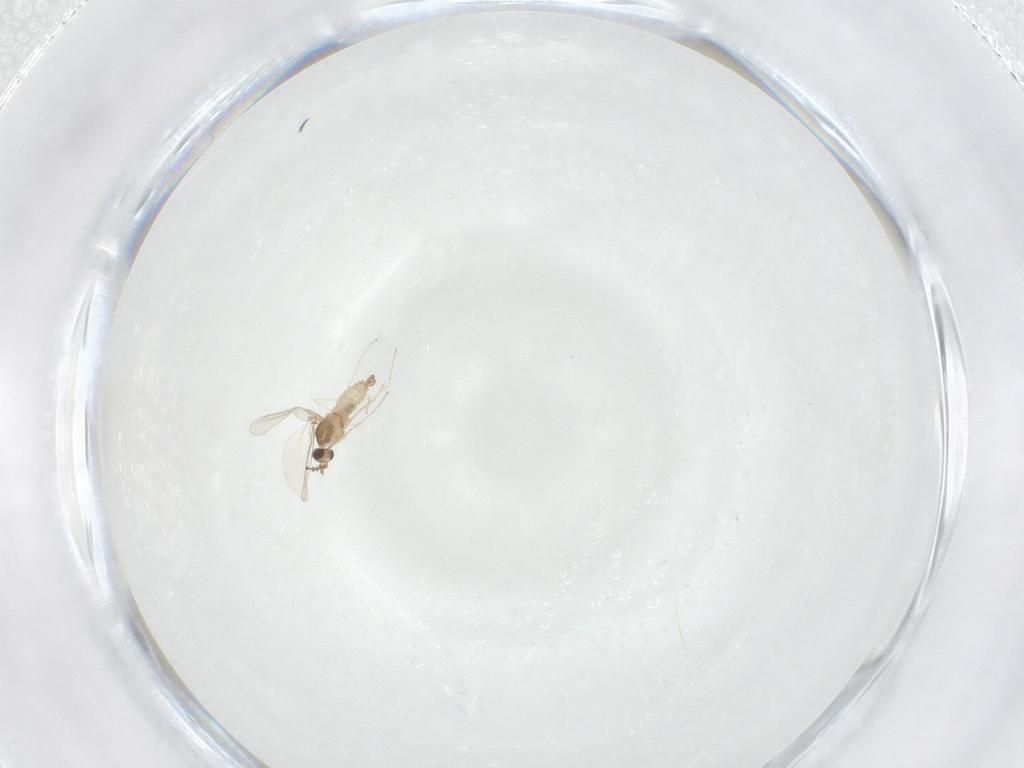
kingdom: Animalia
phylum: Arthropoda
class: Insecta
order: Diptera
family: Cecidomyiidae
